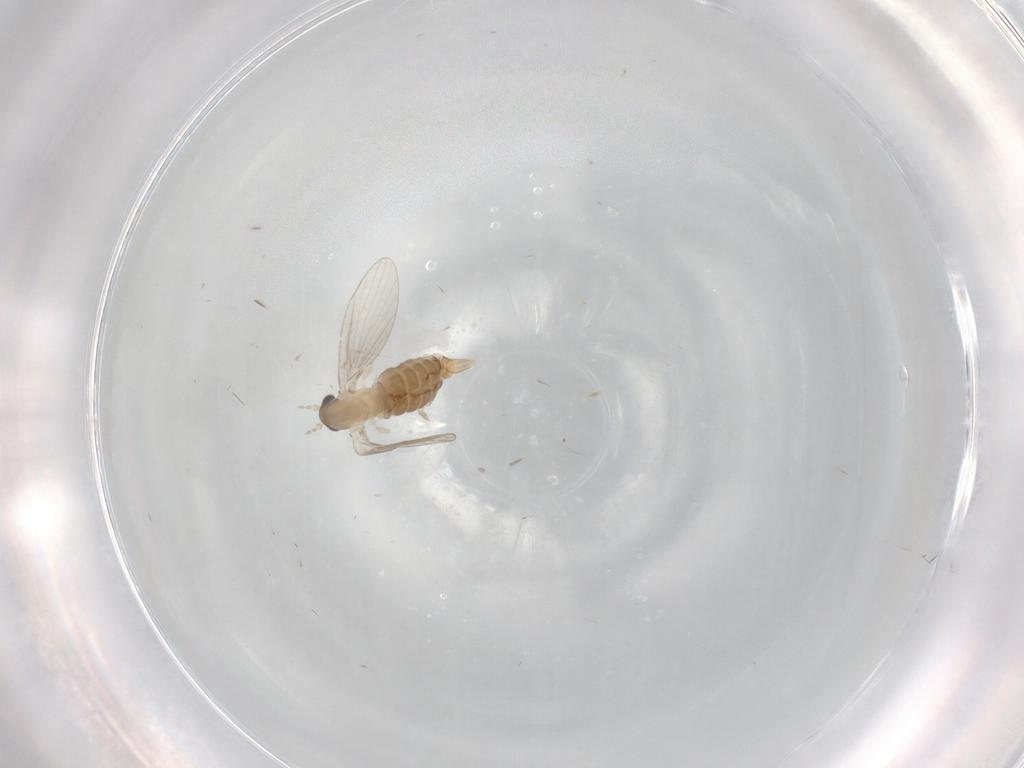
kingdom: Animalia
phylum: Arthropoda
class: Insecta
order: Diptera
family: Psychodidae
